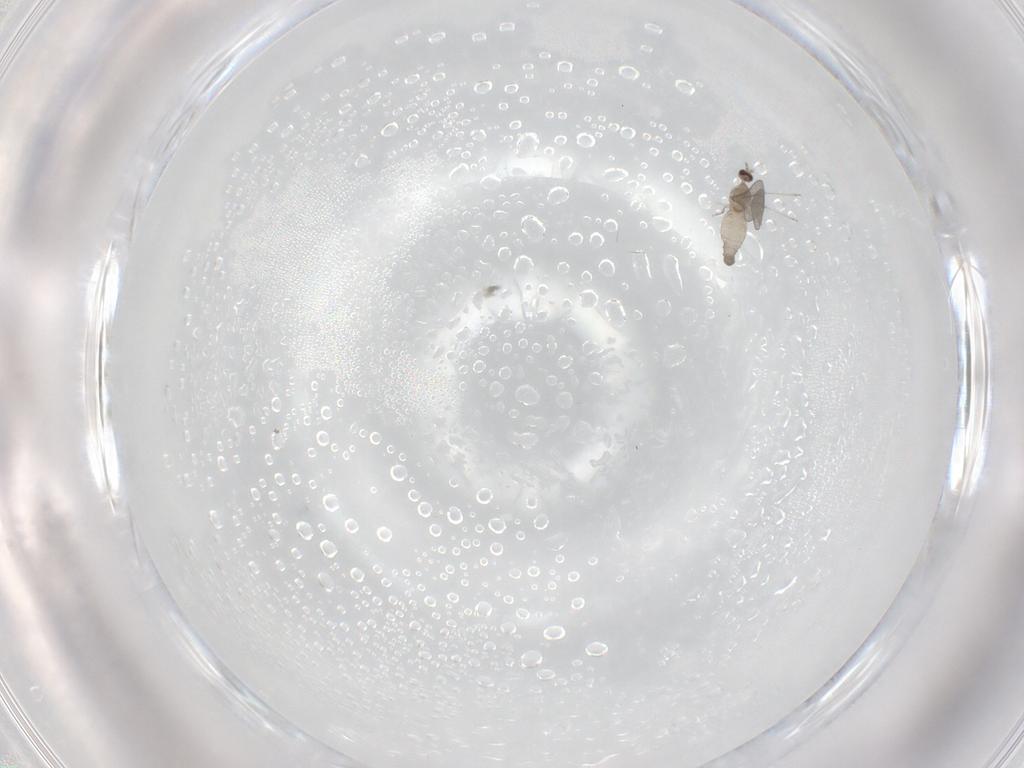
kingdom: Animalia
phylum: Arthropoda
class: Insecta
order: Diptera
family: Cecidomyiidae
